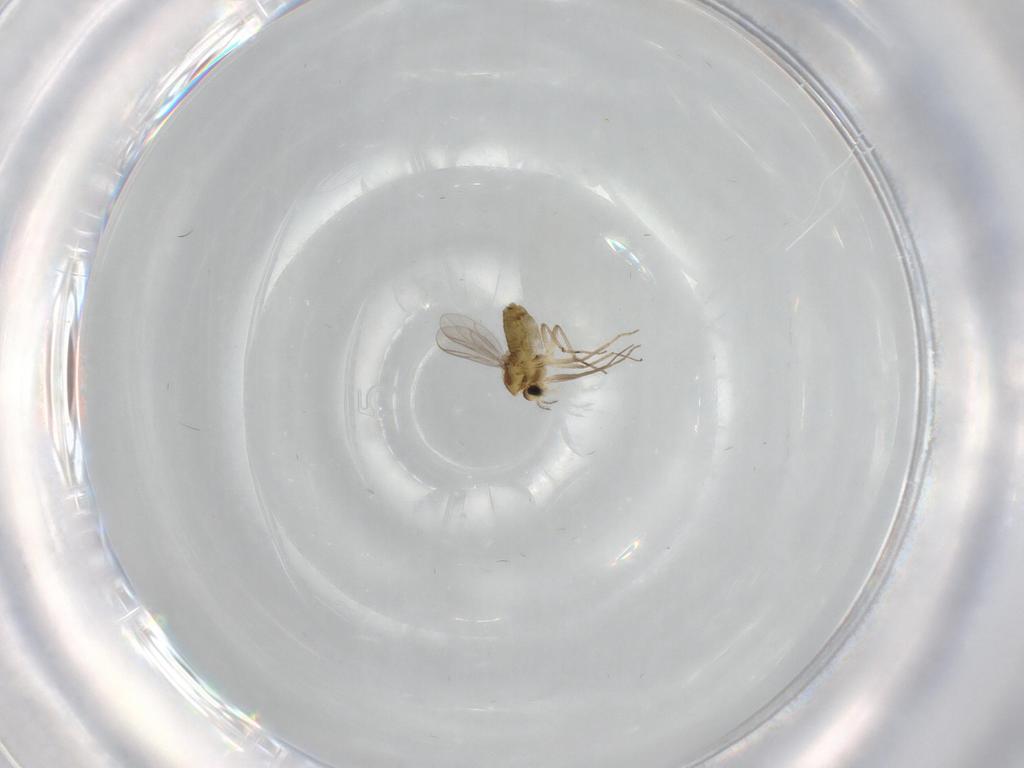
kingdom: Animalia
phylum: Arthropoda
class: Insecta
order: Diptera
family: Chironomidae
